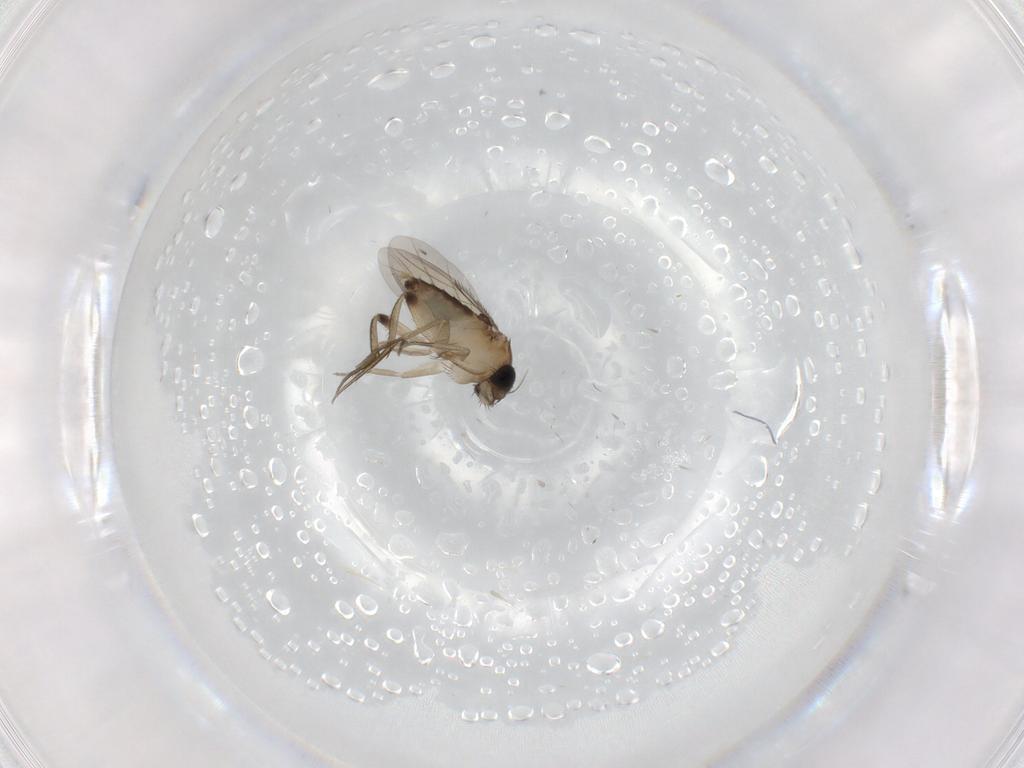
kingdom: Animalia
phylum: Arthropoda
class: Insecta
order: Diptera
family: Phoridae
